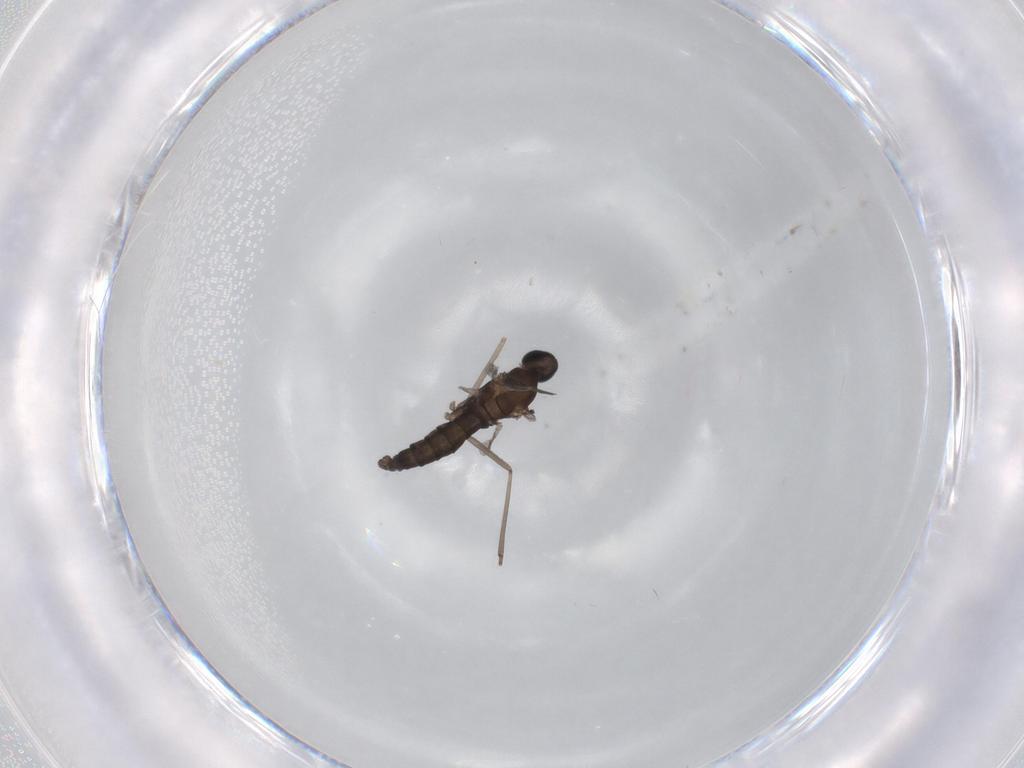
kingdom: Animalia
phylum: Arthropoda
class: Insecta
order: Diptera
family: Cecidomyiidae
